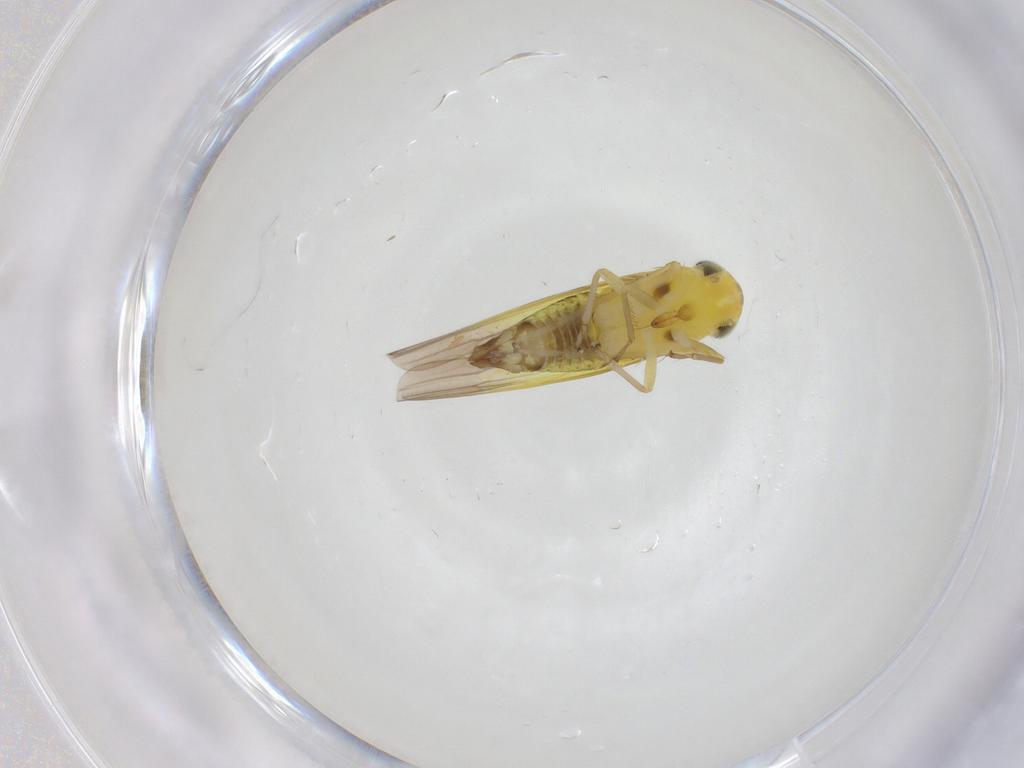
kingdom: Animalia
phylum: Arthropoda
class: Insecta
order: Hemiptera
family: Cicadellidae
